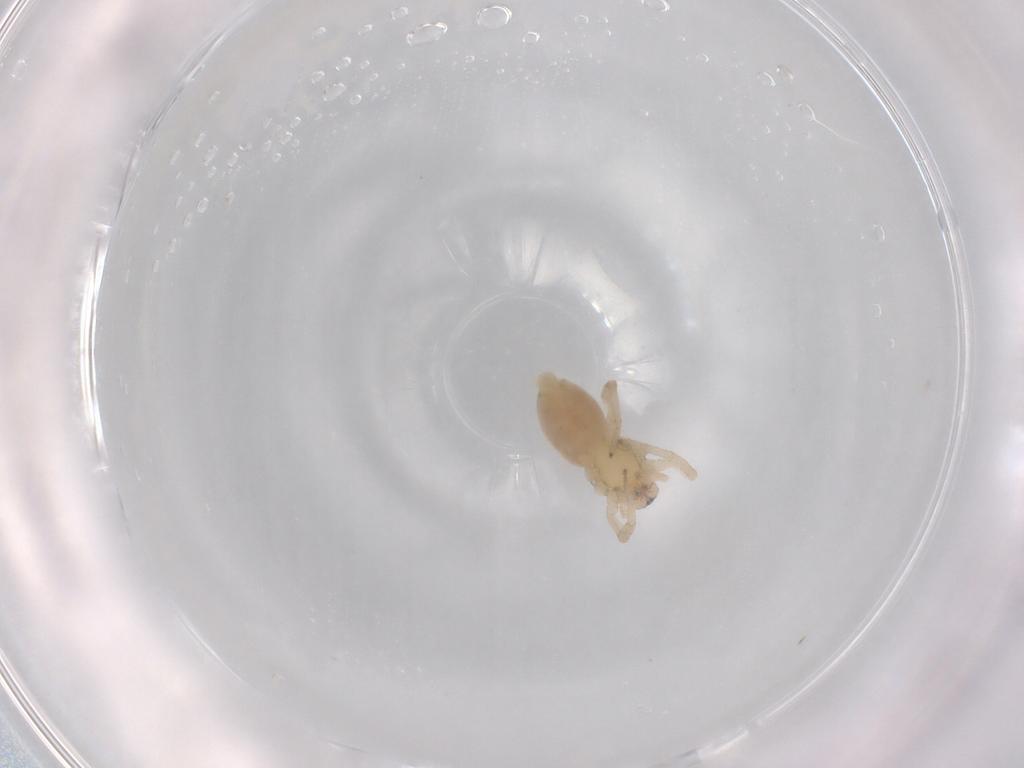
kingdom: Animalia
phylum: Arthropoda
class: Arachnida
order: Araneae
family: Anyphaenidae
